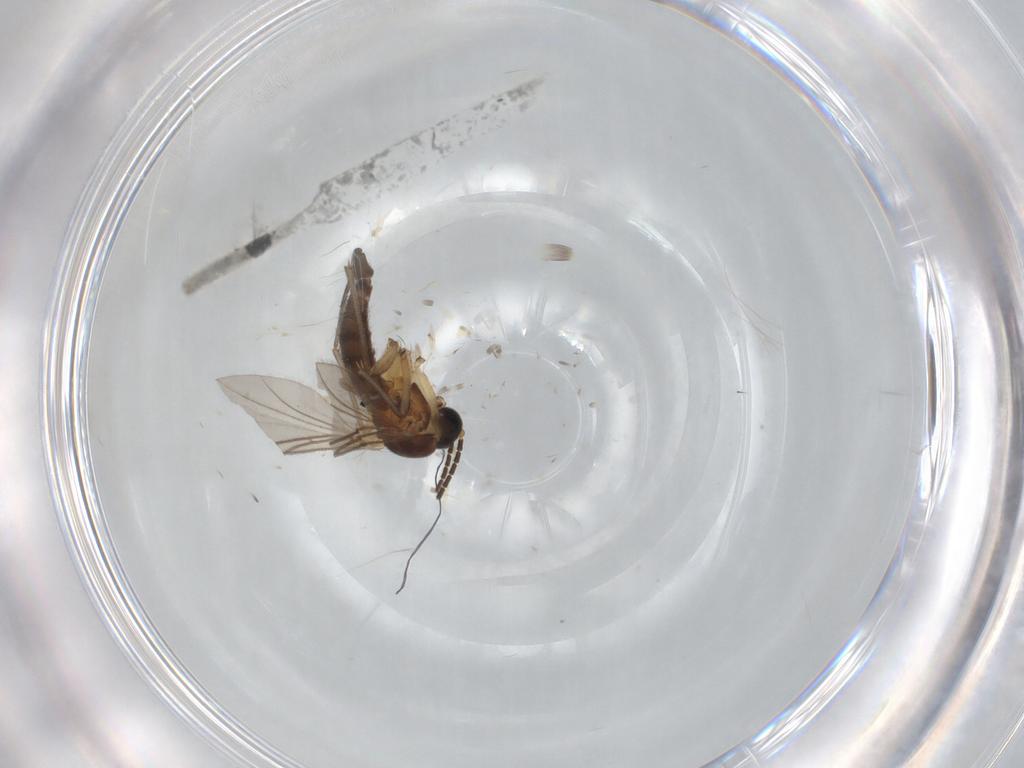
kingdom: Animalia
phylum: Arthropoda
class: Insecta
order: Diptera
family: Sciaridae
